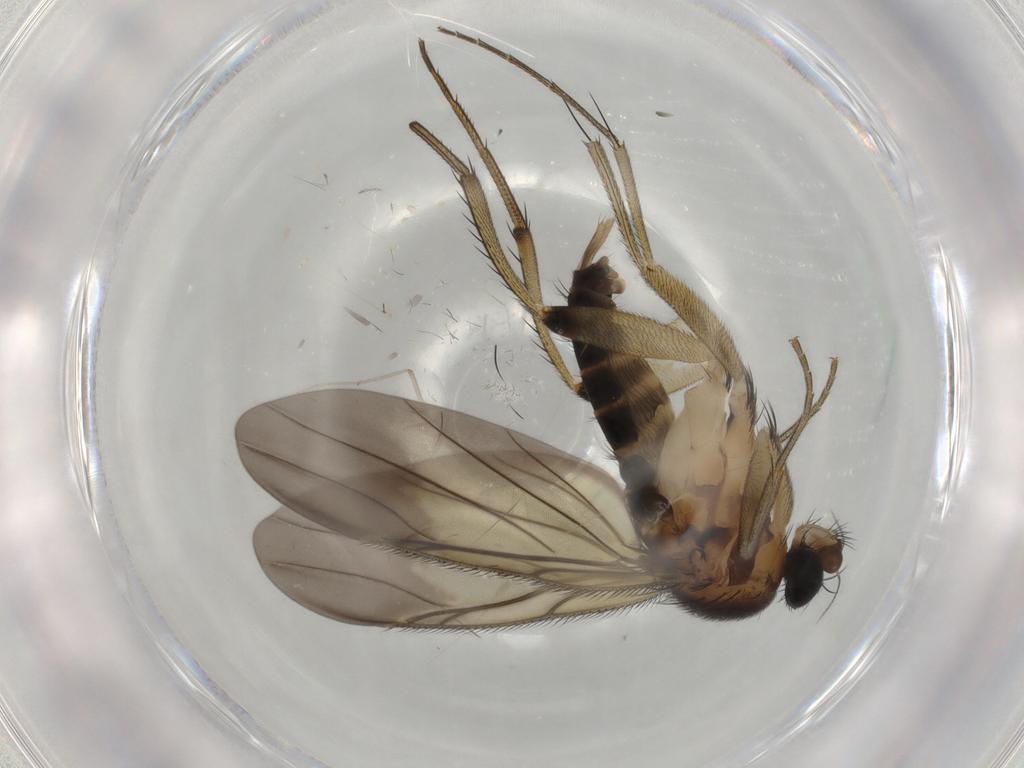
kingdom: Animalia
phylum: Arthropoda
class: Insecta
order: Diptera
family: Phoridae
